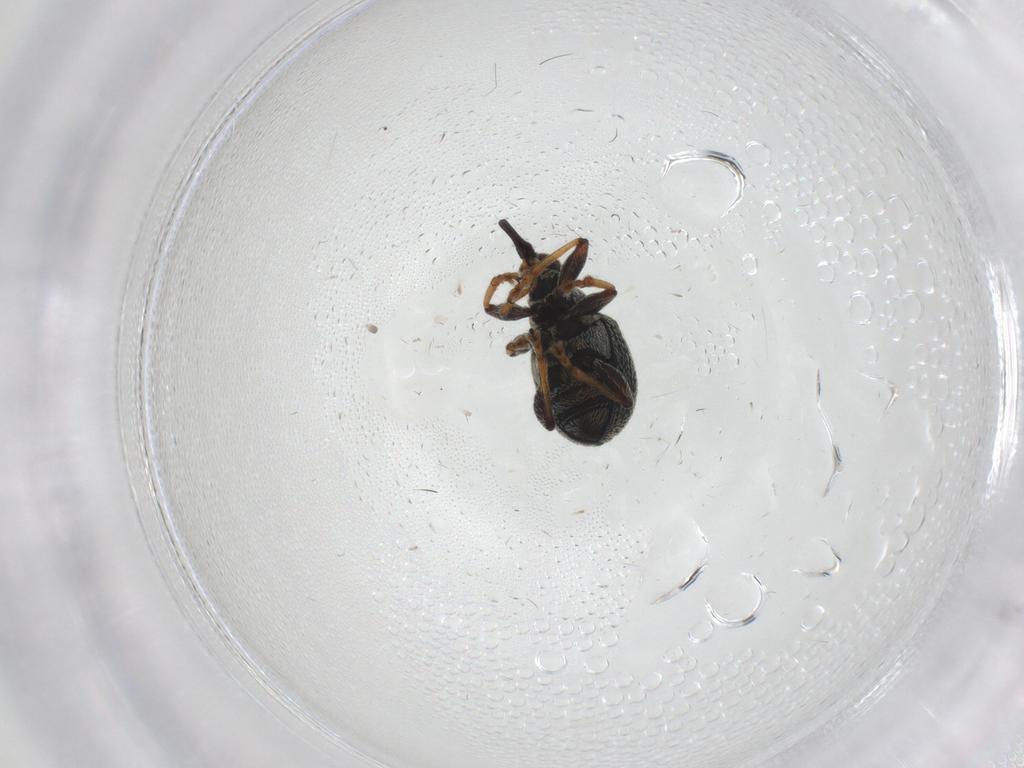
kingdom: Animalia
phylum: Arthropoda
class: Insecta
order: Coleoptera
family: Brentidae
